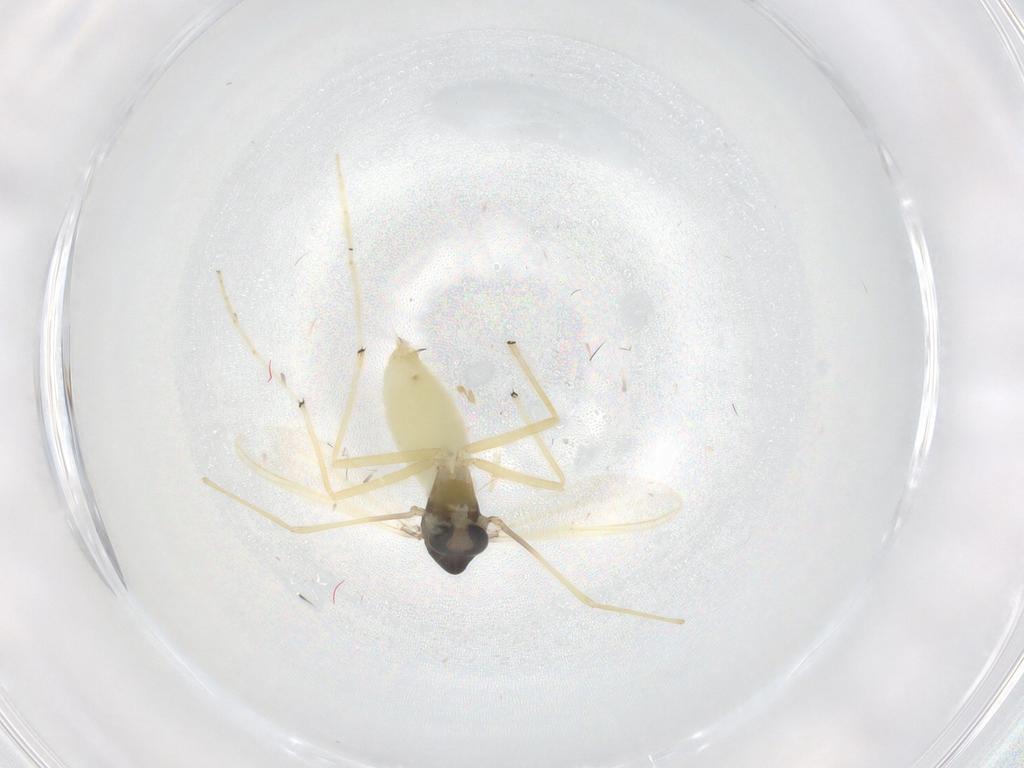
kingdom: Animalia
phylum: Arthropoda
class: Insecta
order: Diptera
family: Chironomidae
